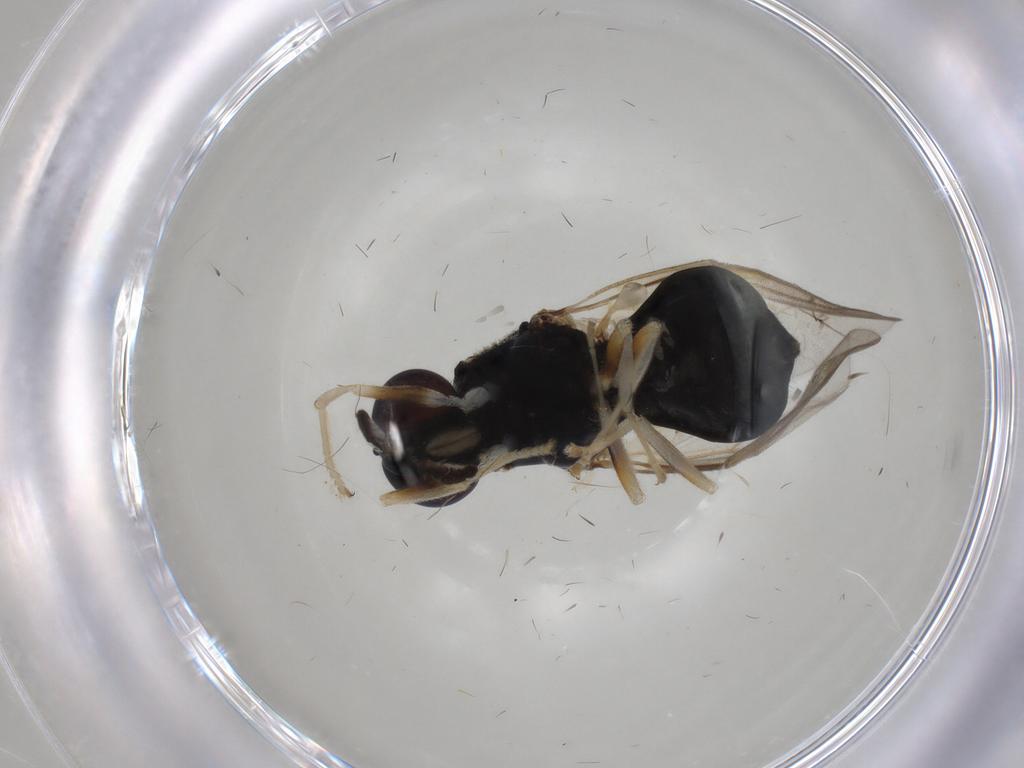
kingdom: Animalia
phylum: Arthropoda
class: Insecta
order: Diptera
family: Stratiomyidae
